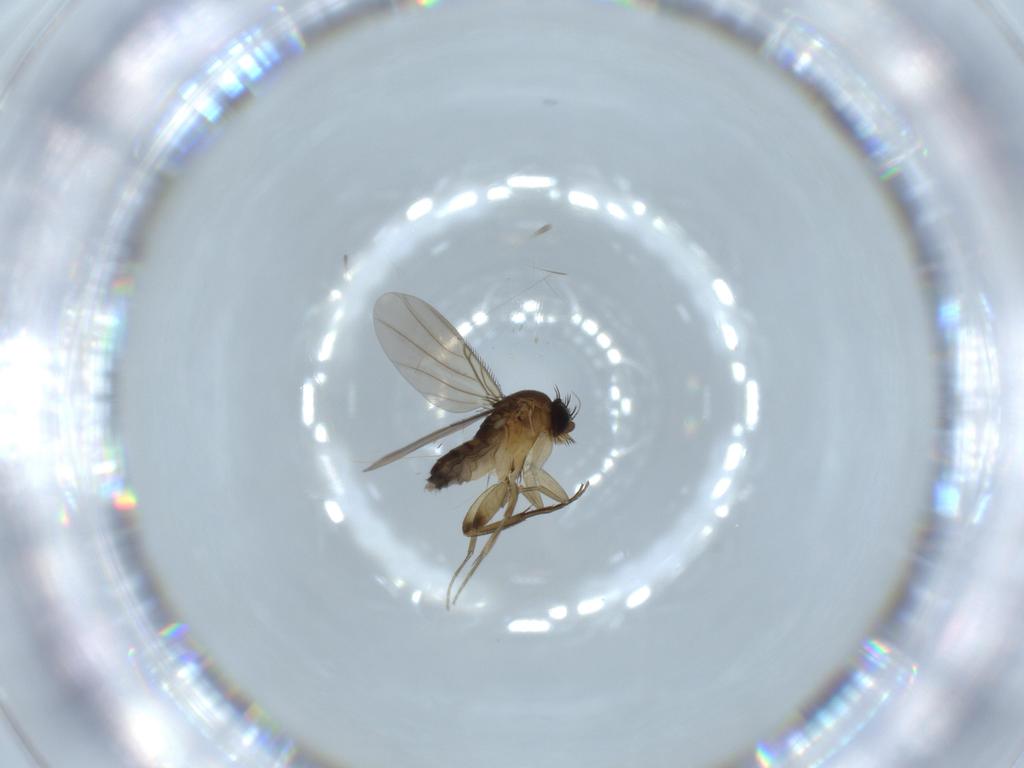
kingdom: Animalia
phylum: Arthropoda
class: Insecta
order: Diptera
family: Phoridae
